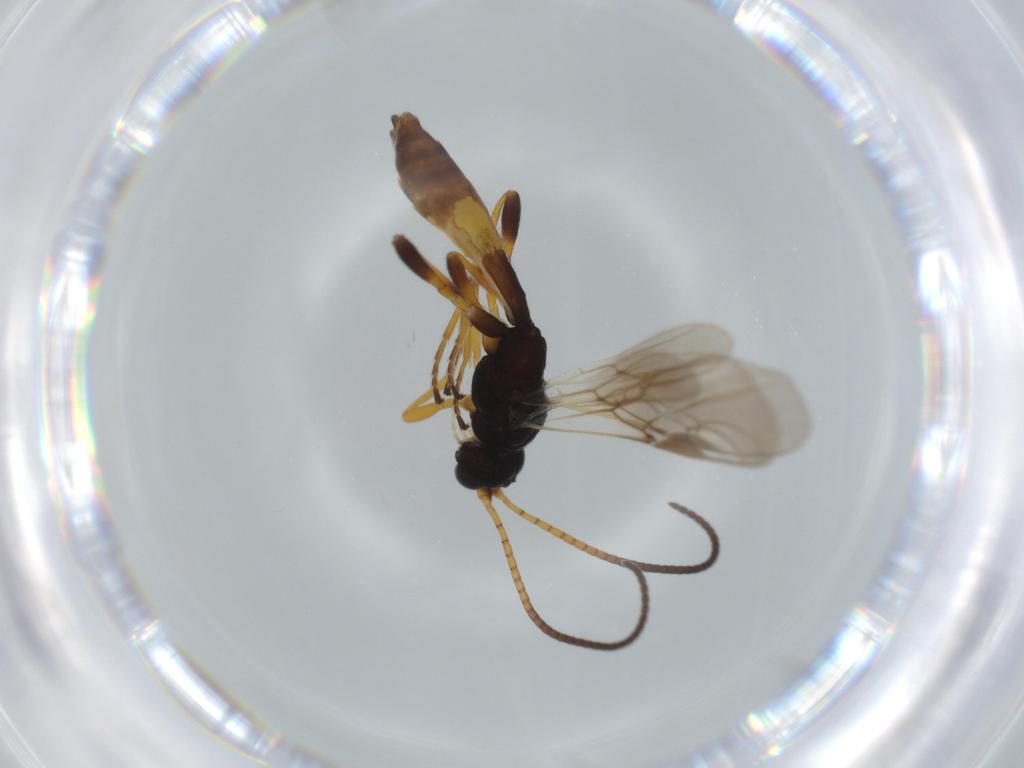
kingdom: Animalia
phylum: Arthropoda
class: Insecta
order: Hymenoptera
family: Braconidae
